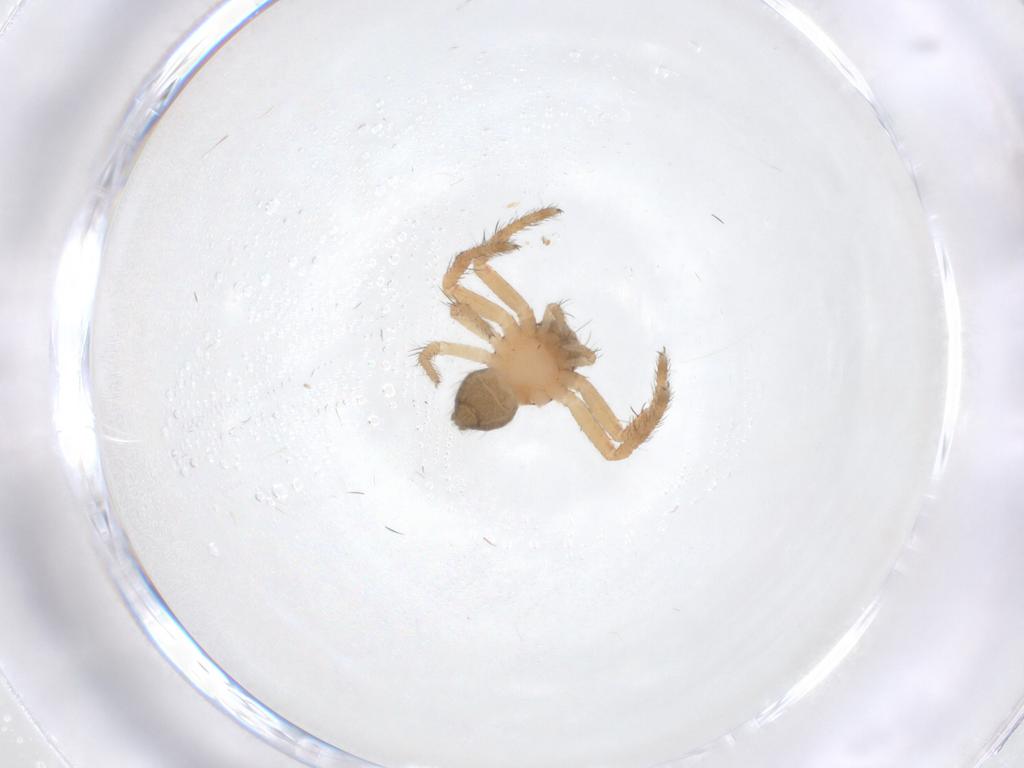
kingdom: Animalia
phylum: Arthropoda
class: Arachnida
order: Araneae
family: Thomisidae
